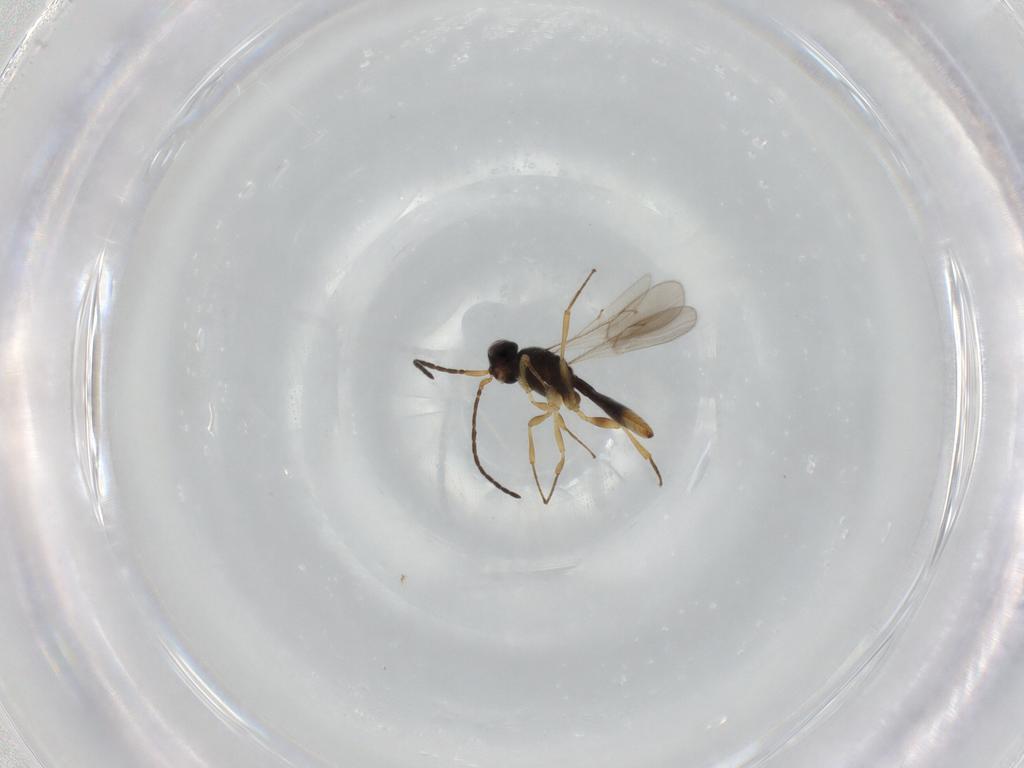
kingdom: Animalia
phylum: Arthropoda
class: Insecta
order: Hymenoptera
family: Scelionidae
